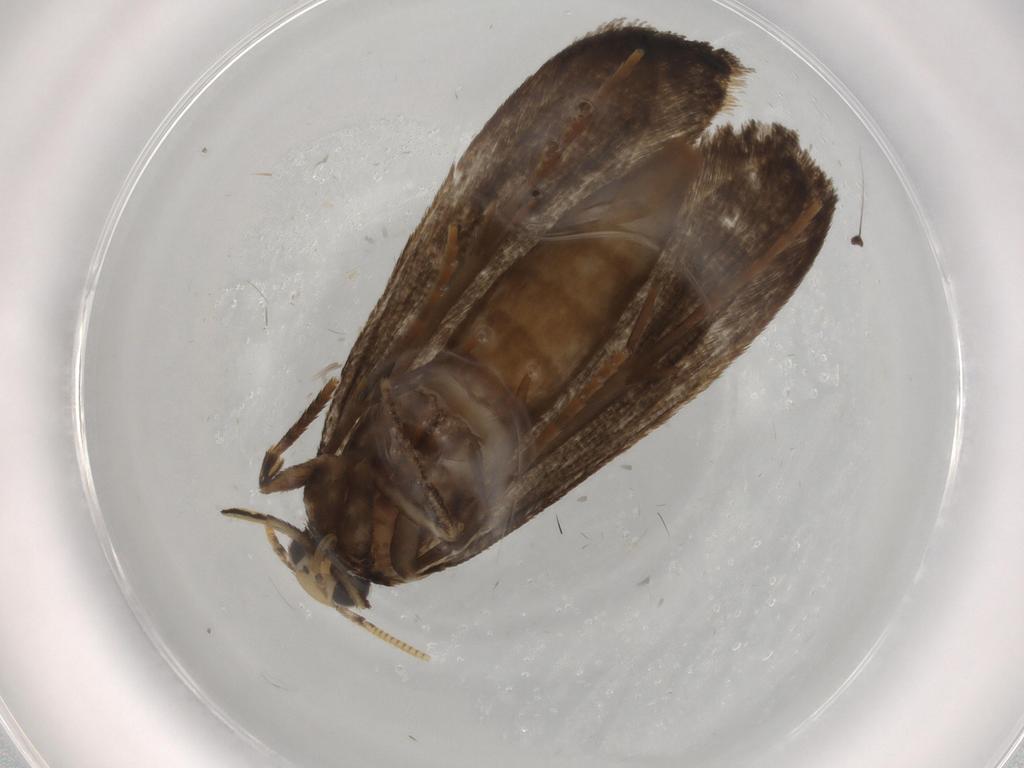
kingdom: Animalia
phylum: Arthropoda
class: Insecta
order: Lepidoptera
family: Tineidae
